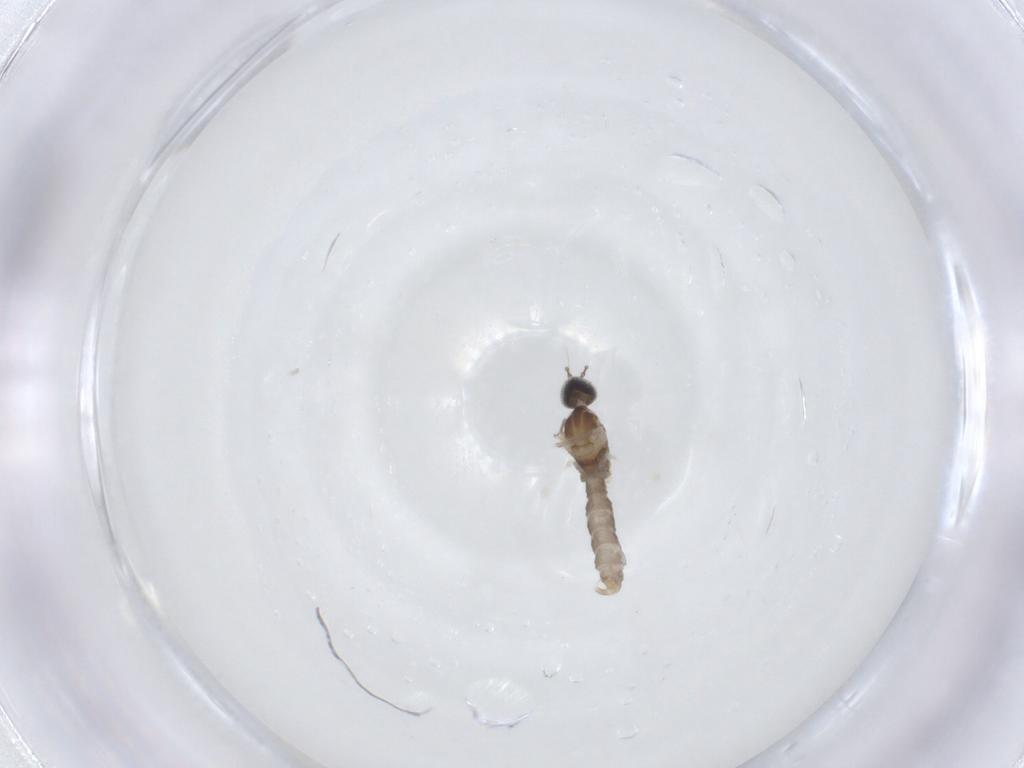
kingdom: Animalia
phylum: Arthropoda
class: Insecta
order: Diptera
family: Cecidomyiidae
